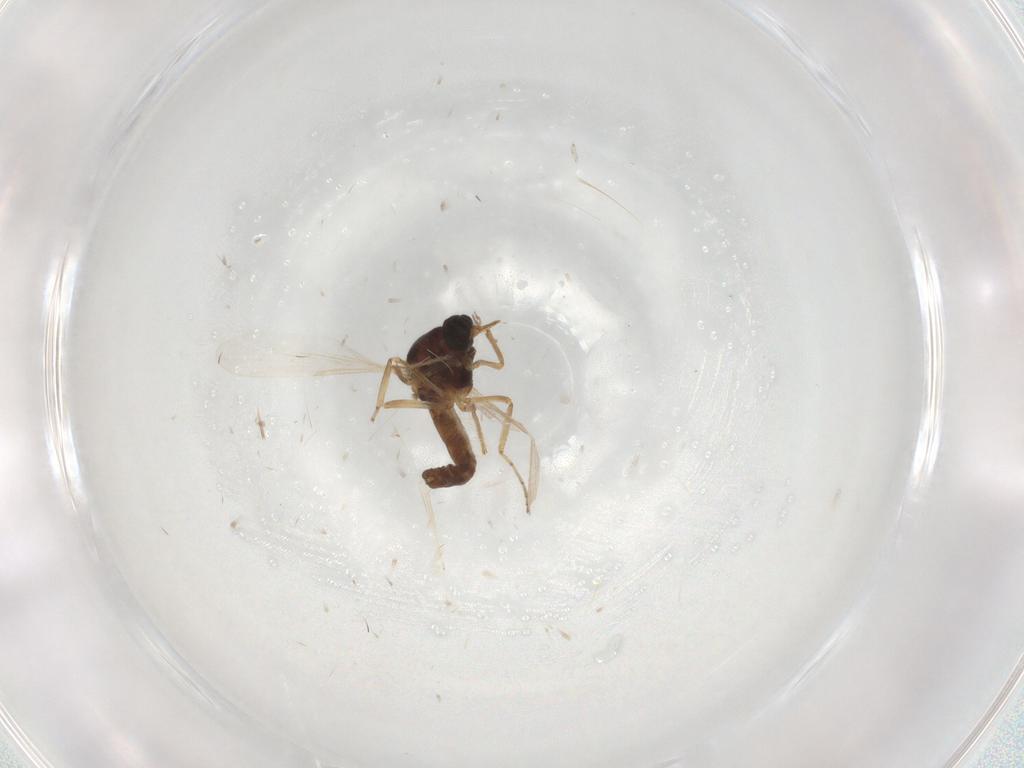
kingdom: Animalia
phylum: Arthropoda
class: Insecta
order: Diptera
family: Ceratopogonidae
